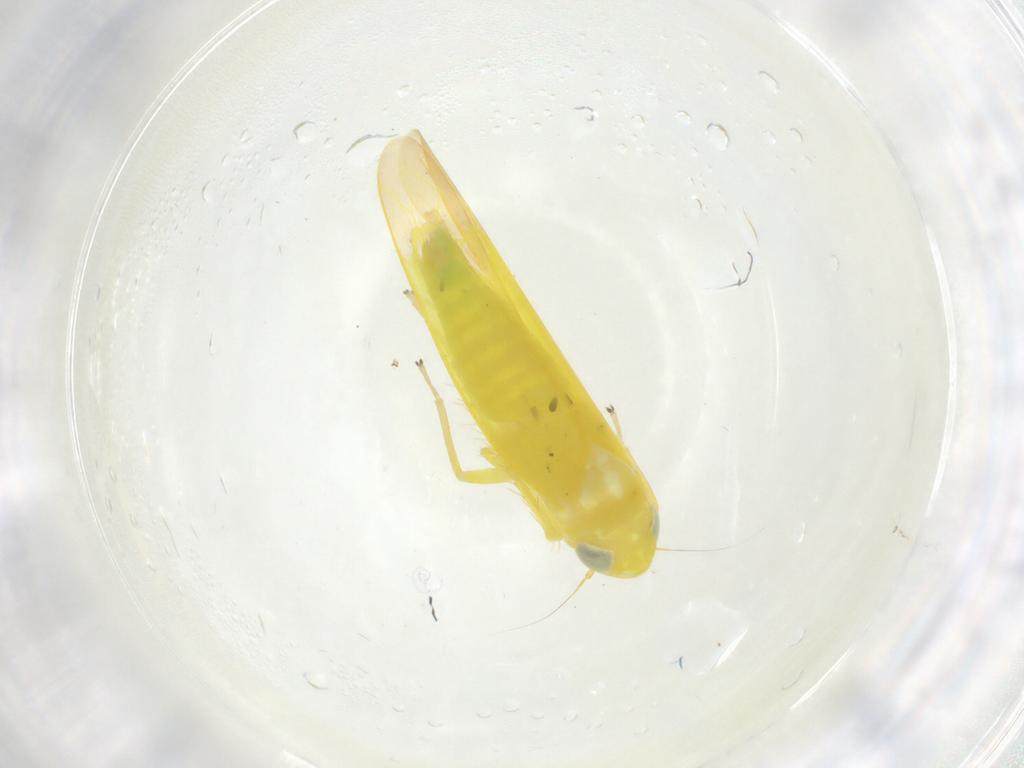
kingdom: Animalia
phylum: Arthropoda
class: Insecta
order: Hemiptera
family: Cicadellidae
